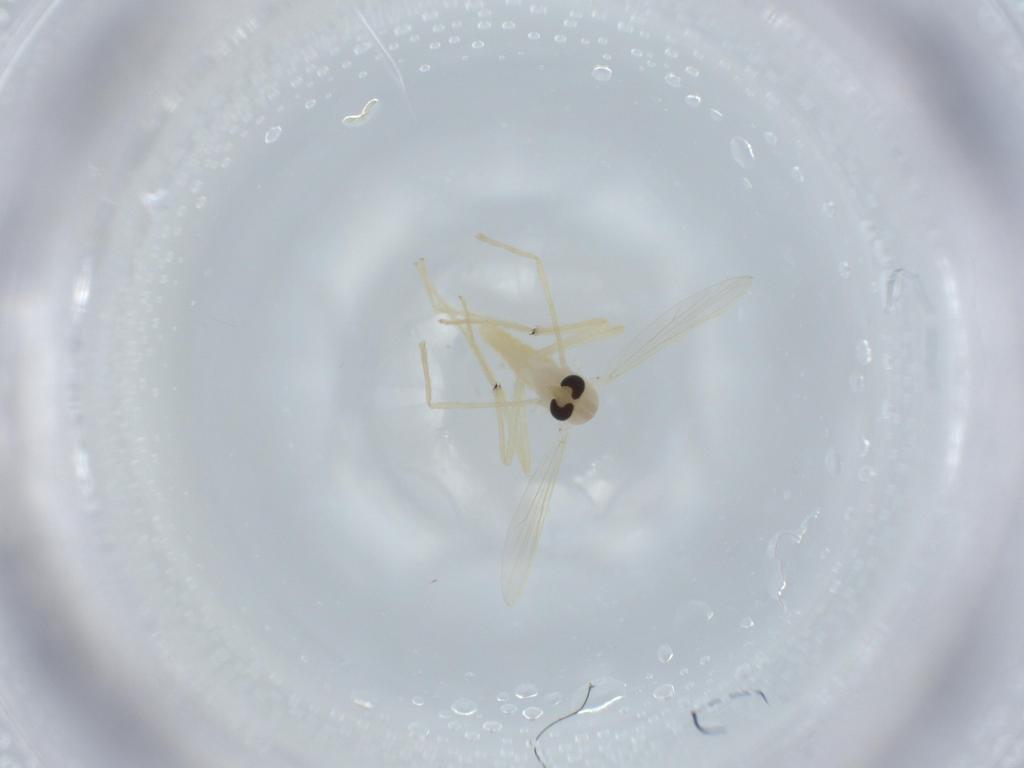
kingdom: Animalia
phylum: Arthropoda
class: Insecta
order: Diptera
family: Chironomidae
